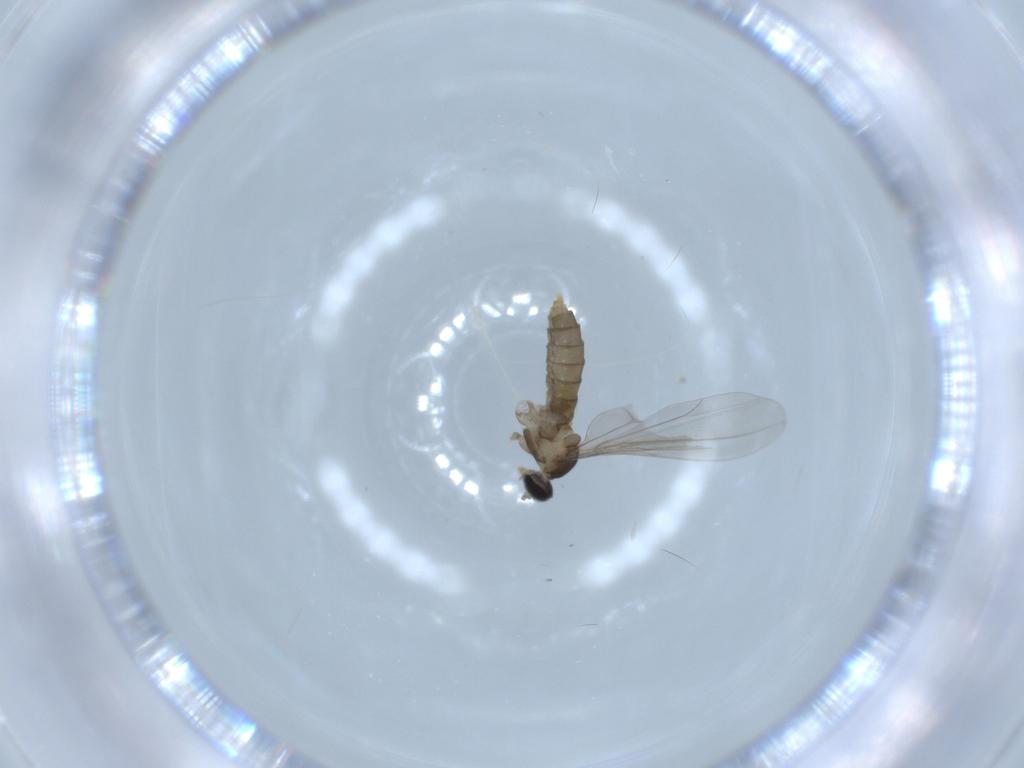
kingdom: Animalia
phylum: Arthropoda
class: Insecta
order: Diptera
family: Cecidomyiidae
